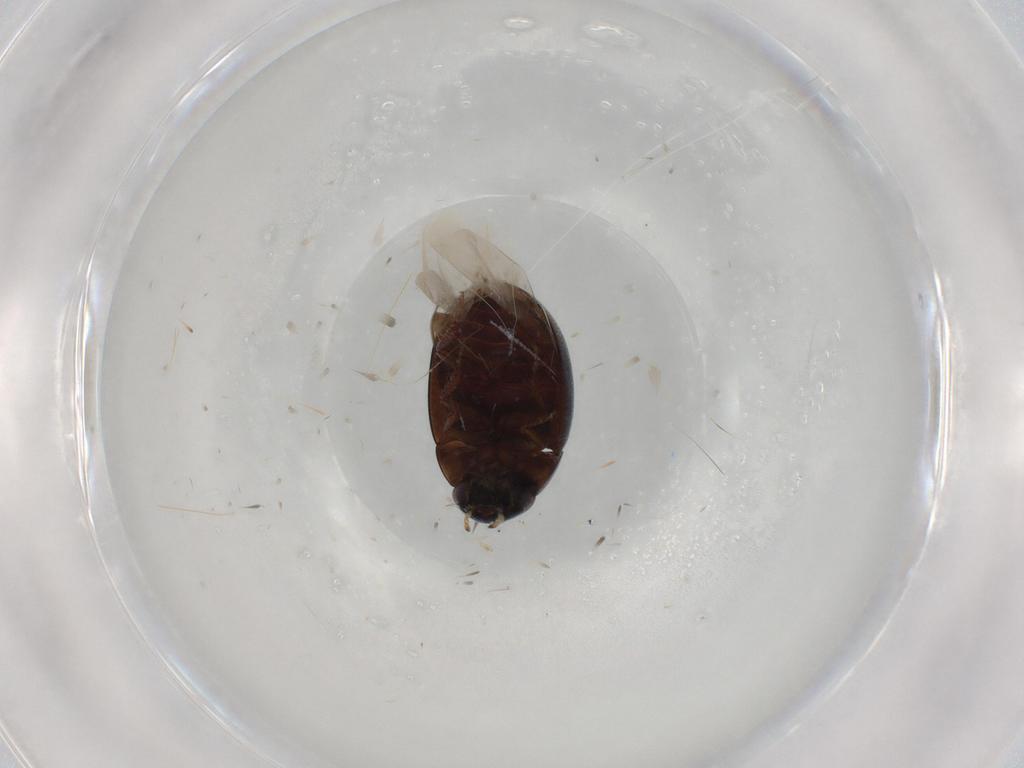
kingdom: Animalia
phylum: Arthropoda
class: Insecta
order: Coleoptera
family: Hydrophilidae
